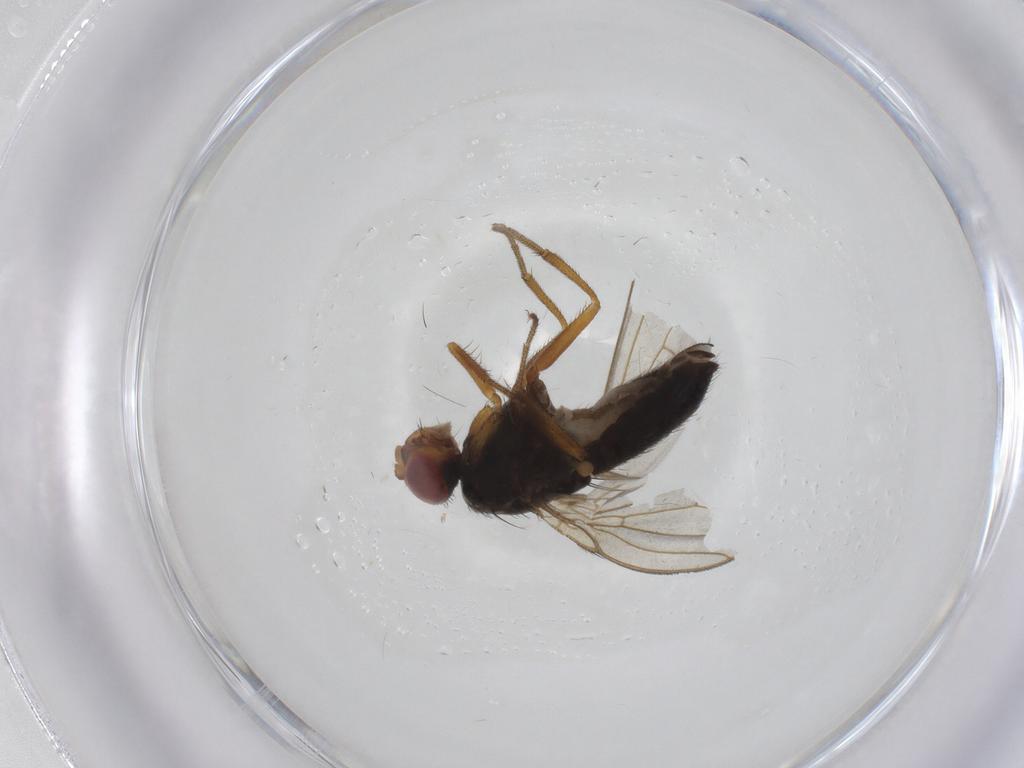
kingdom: Animalia
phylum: Arthropoda
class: Insecta
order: Diptera
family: Drosophilidae
